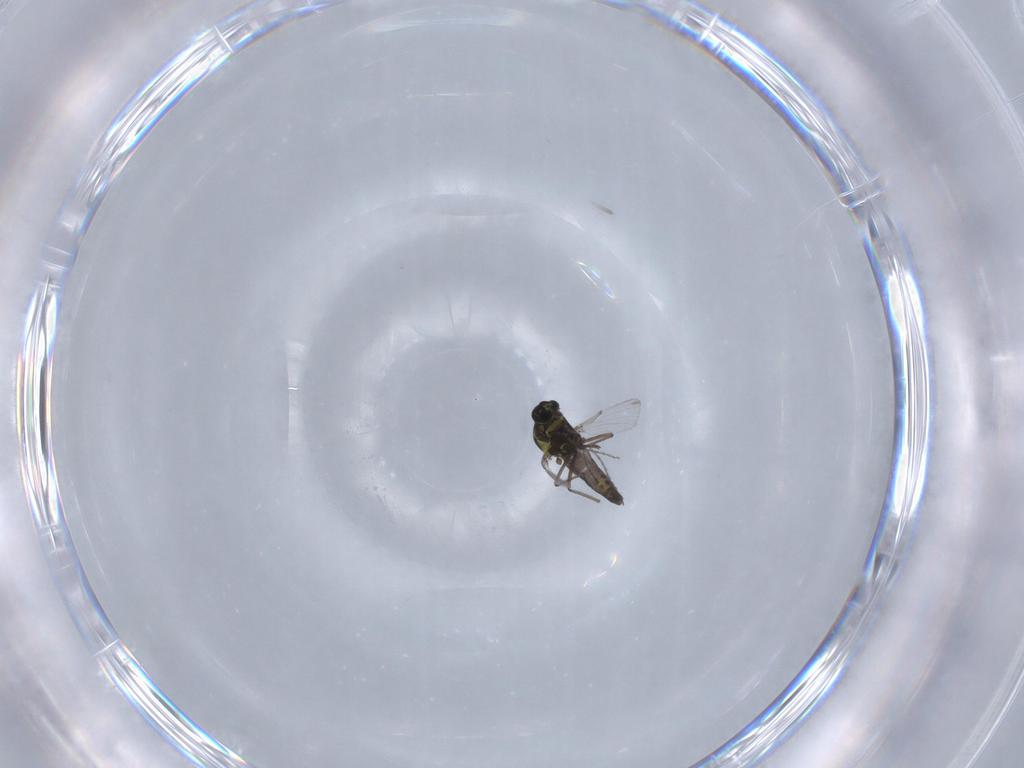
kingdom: Animalia
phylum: Arthropoda
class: Insecta
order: Diptera
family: Ceratopogonidae
